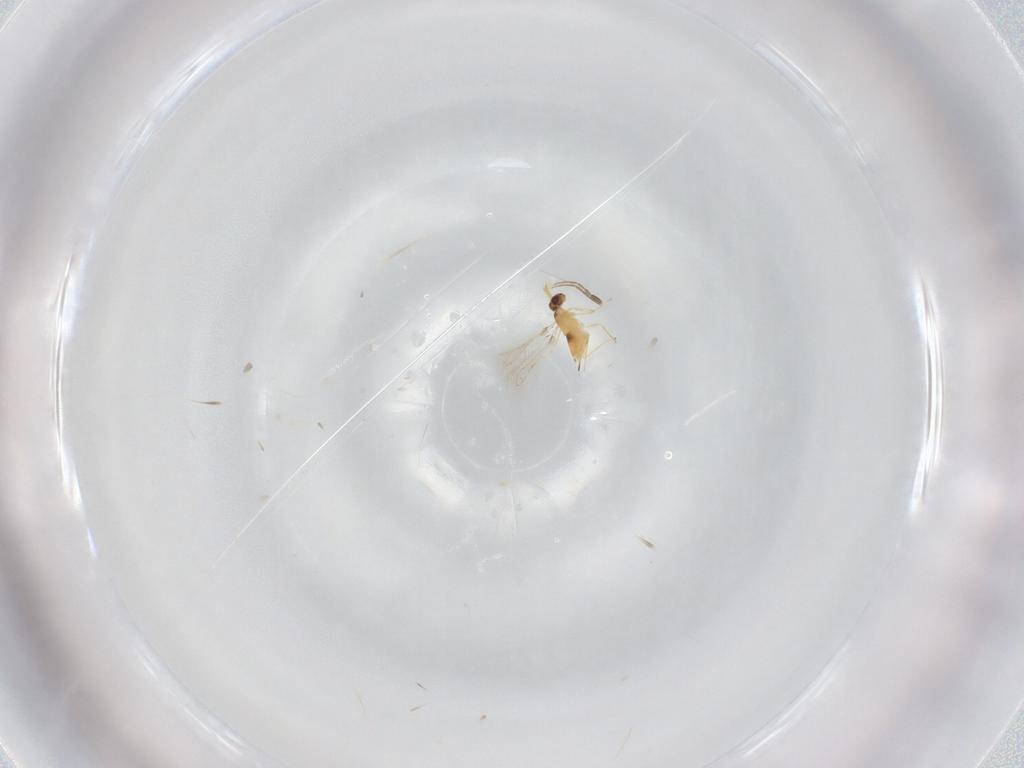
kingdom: Animalia
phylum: Arthropoda
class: Insecta
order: Hymenoptera
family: Mymaridae
